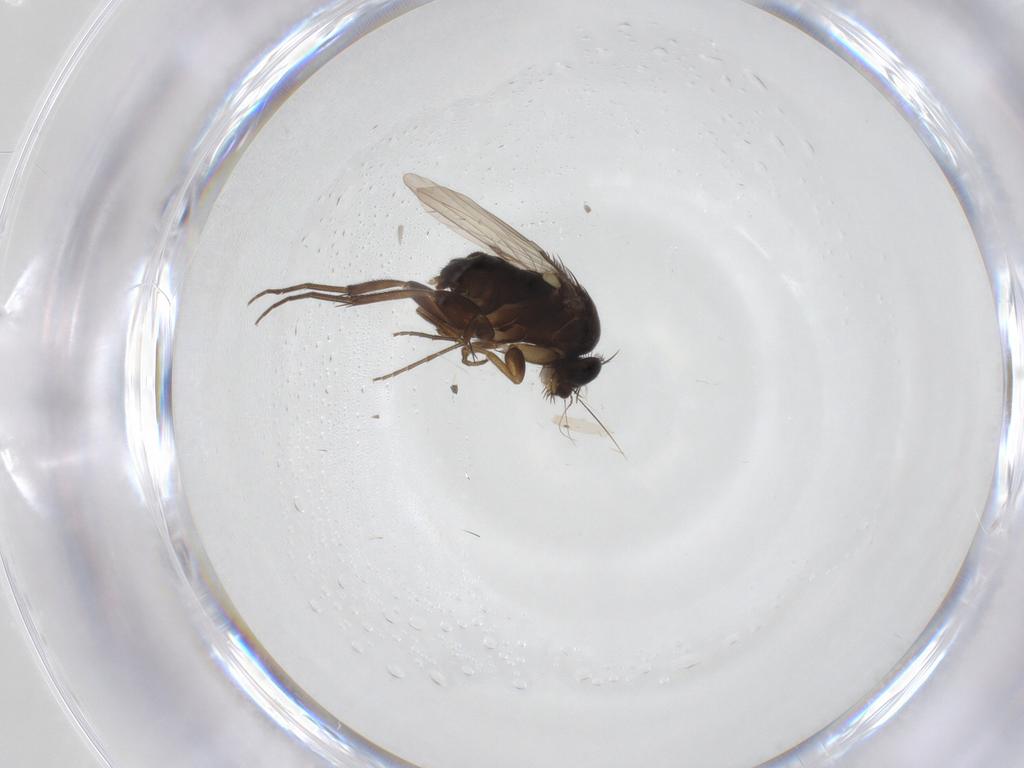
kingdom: Animalia
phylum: Arthropoda
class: Insecta
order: Diptera
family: Phoridae
